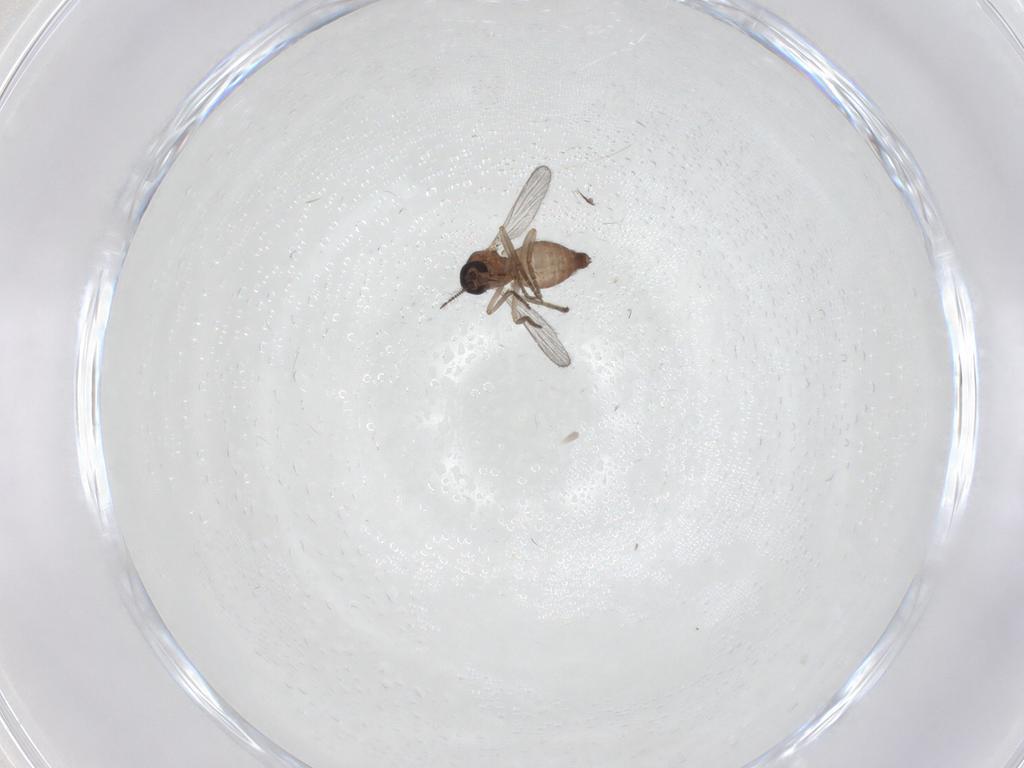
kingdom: Animalia
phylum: Arthropoda
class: Insecta
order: Diptera
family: Ceratopogonidae
